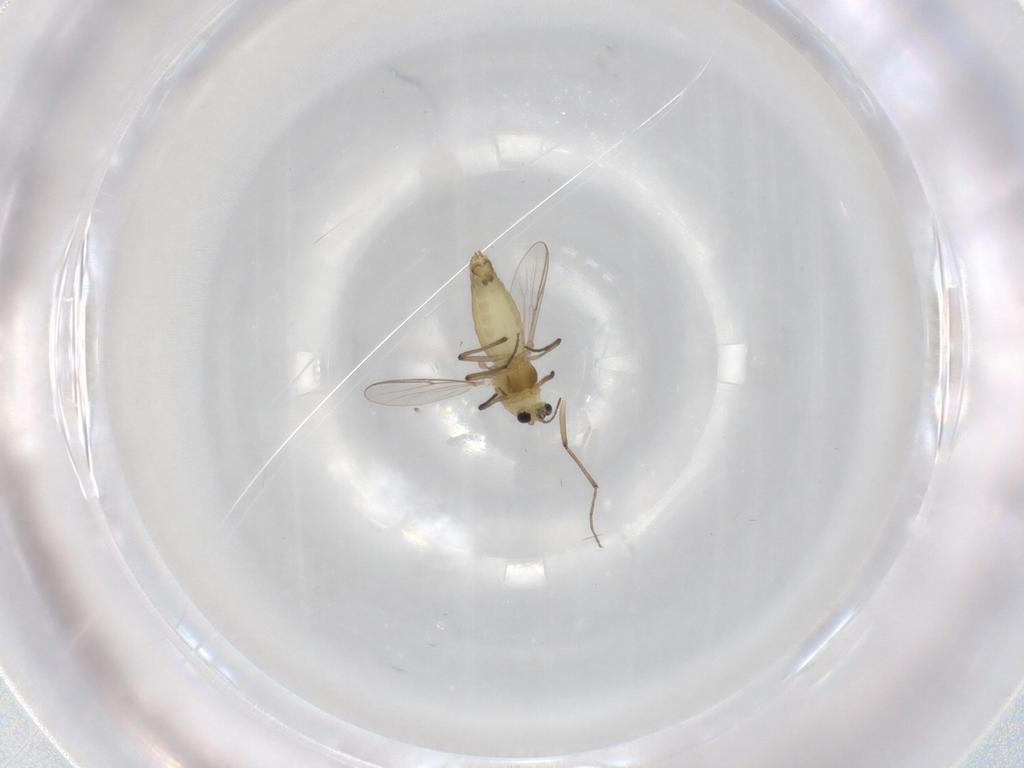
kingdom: Animalia
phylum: Arthropoda
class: Insecta
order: Diptera
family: Chironomidae
